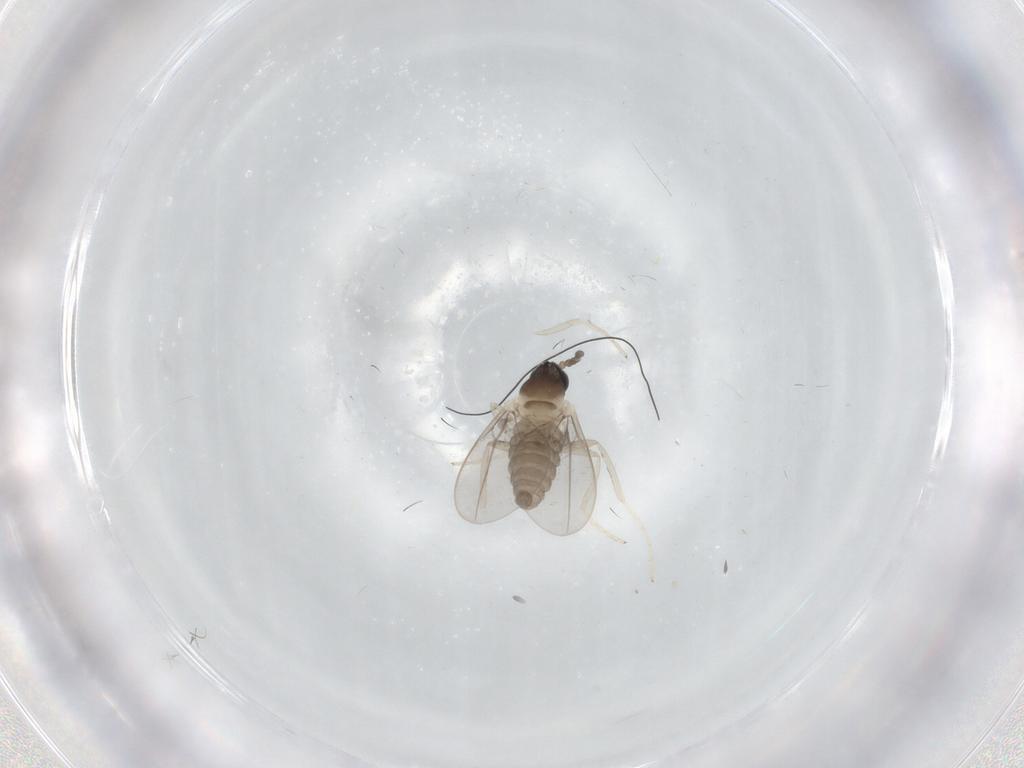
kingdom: Animalia
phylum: Arthropoda
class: Insecta
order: Diptera
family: Cecidomyiidae
